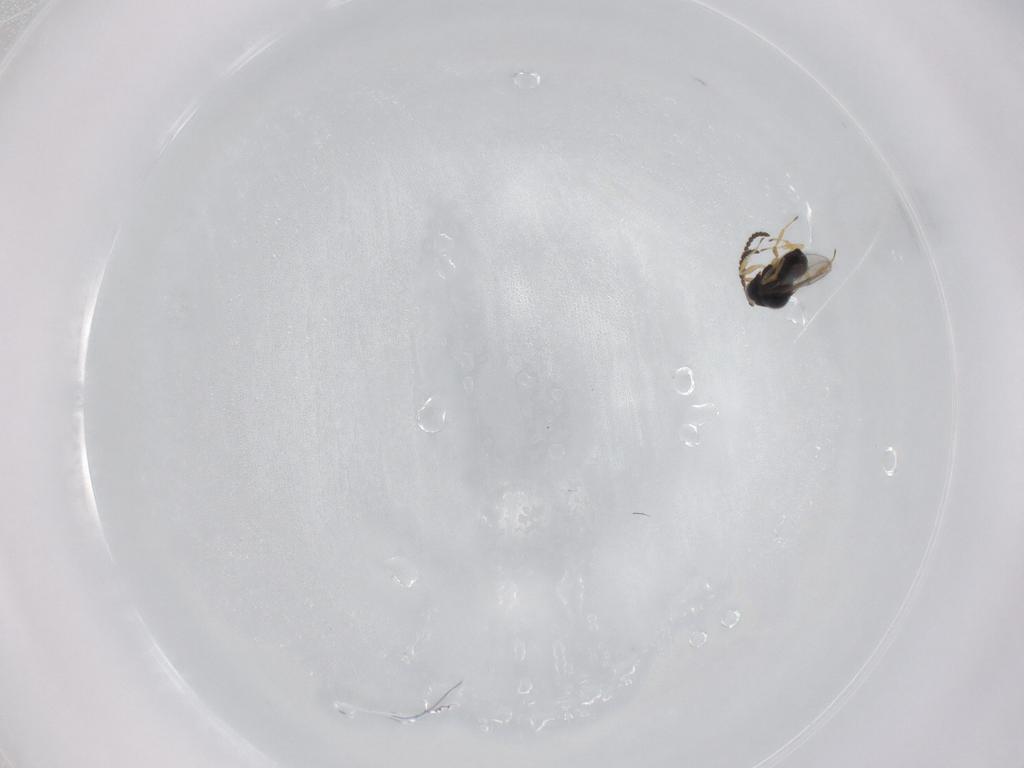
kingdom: Animalia
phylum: Arthropoda
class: Insecta
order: Hymenoptera
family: Scelionidae
